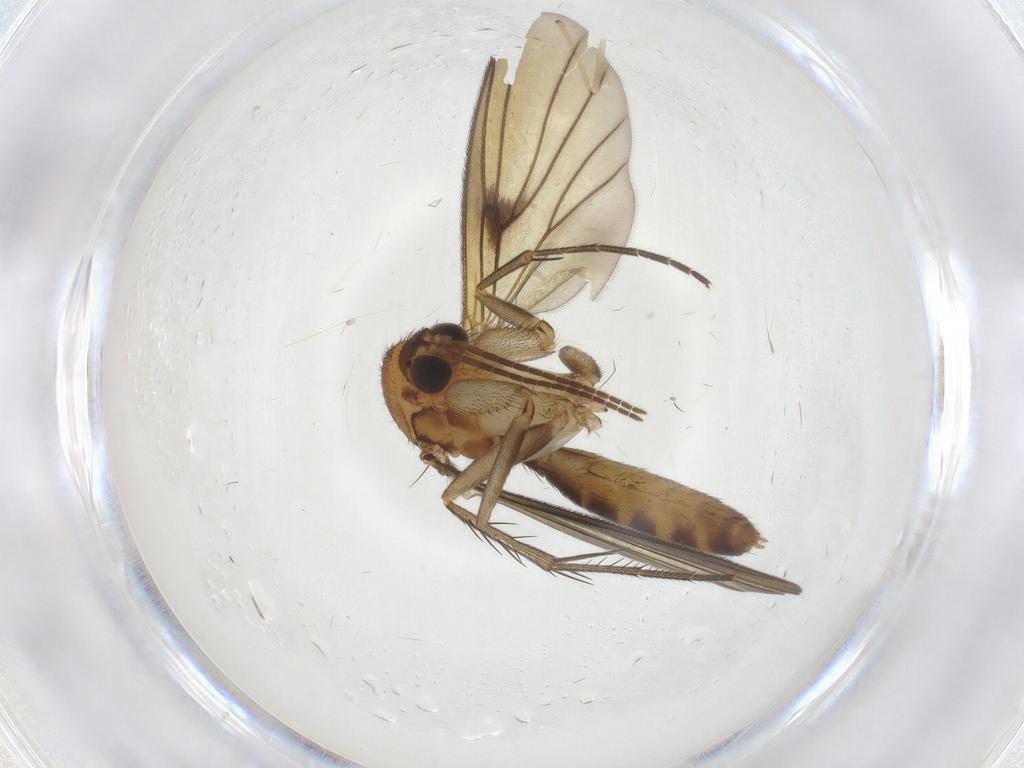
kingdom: Animalia
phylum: Arthropoda
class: Insecta
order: Diptera
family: Mycetophilidae
